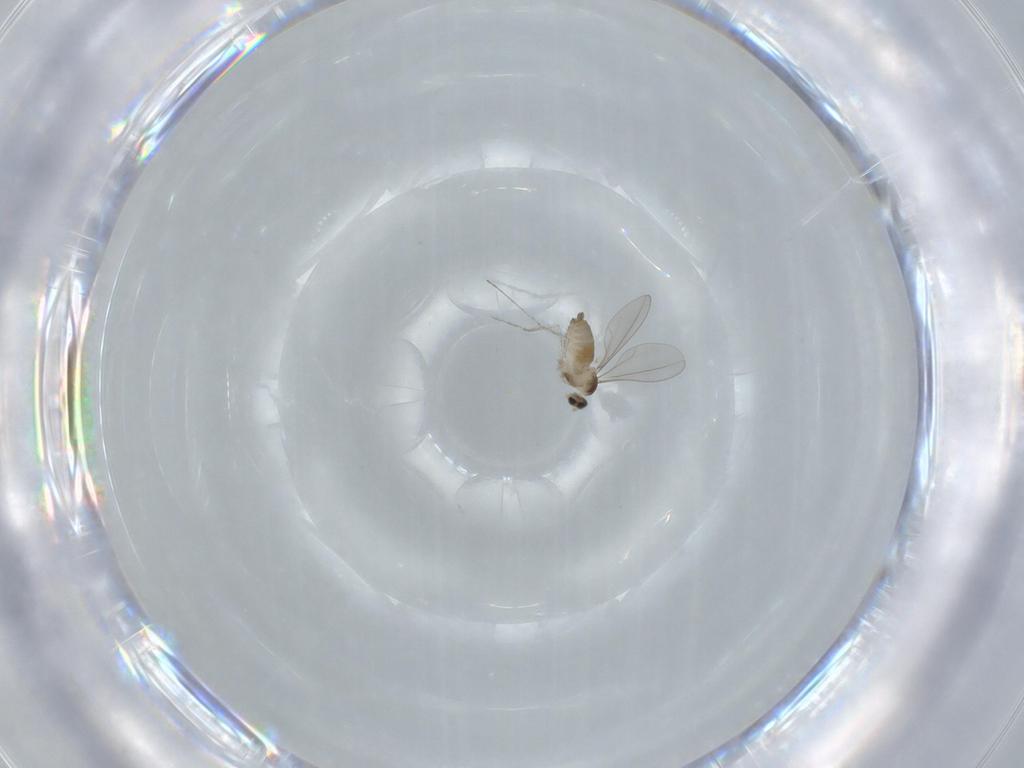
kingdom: Animalia
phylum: Arthropoda
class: Insecta
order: Diptera
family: Cecidomyiidae
